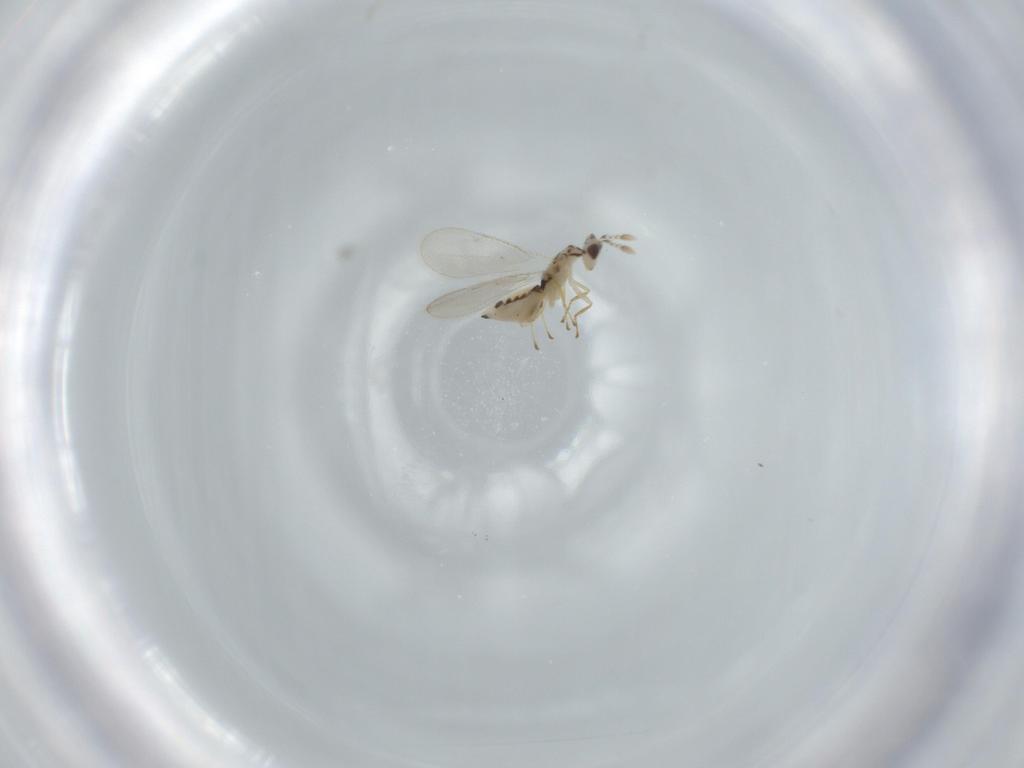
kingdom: Animalia
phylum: Arthropoda
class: Insecta
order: Hymenoptera
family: Eulophidae
